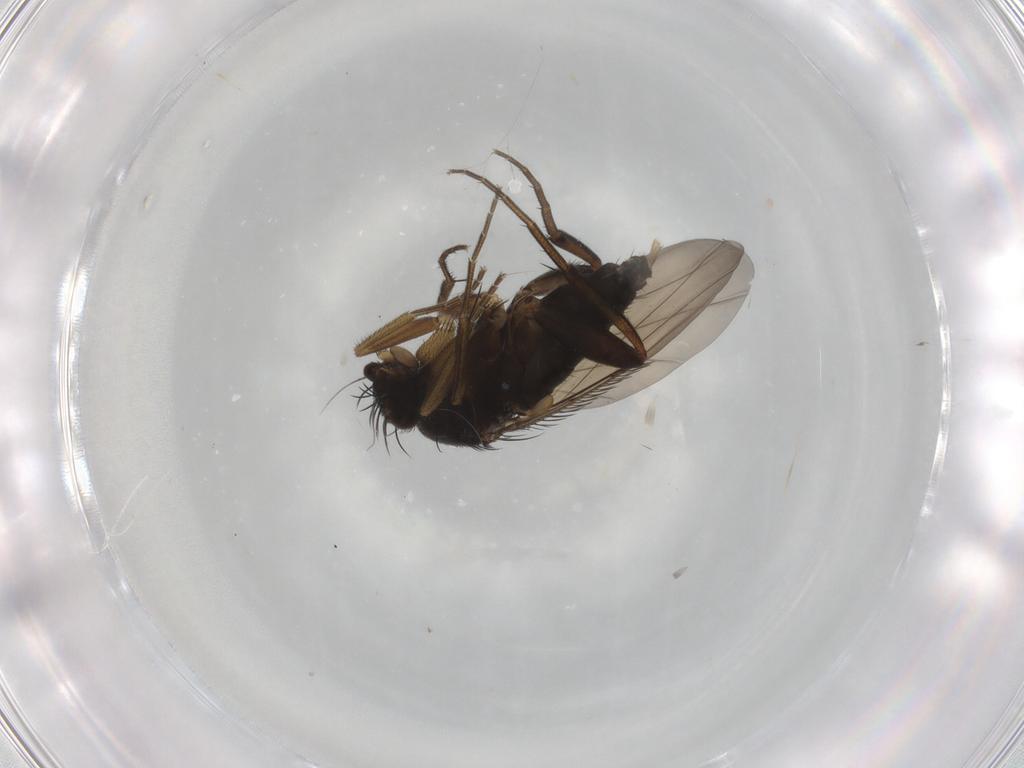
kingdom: Animalia
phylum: Arthropoda
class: Insecta
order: Diptera
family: Phoridae
